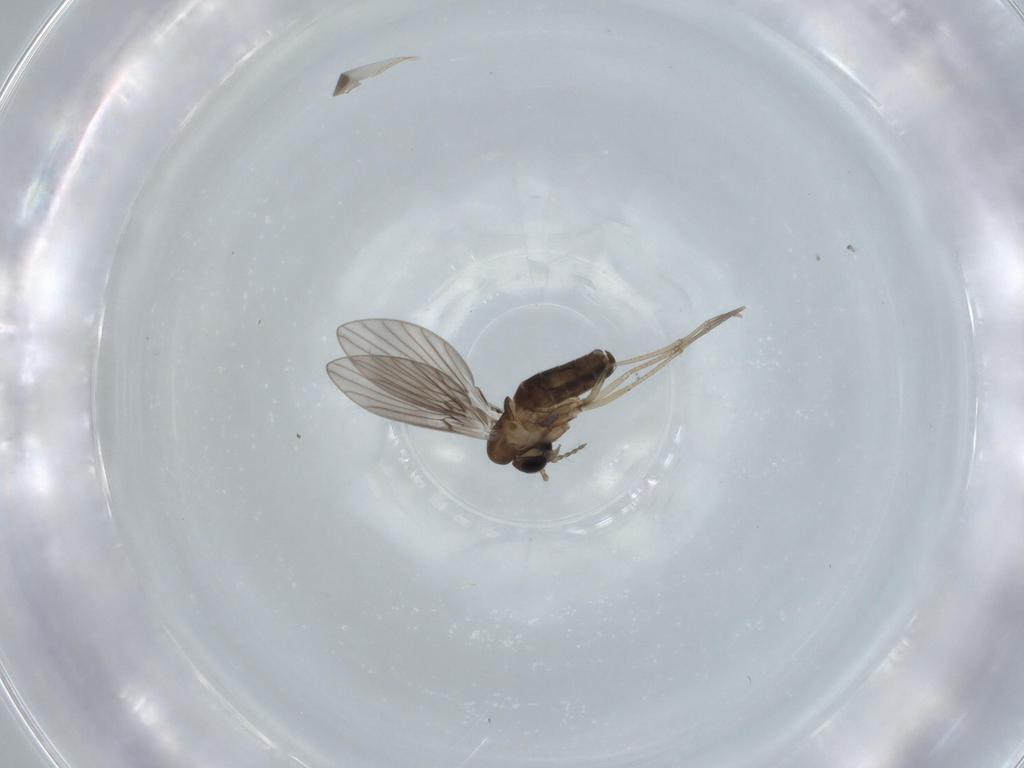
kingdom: Animalia
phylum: Arthropoda
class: Insecta
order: Diptera
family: Psychodidae
